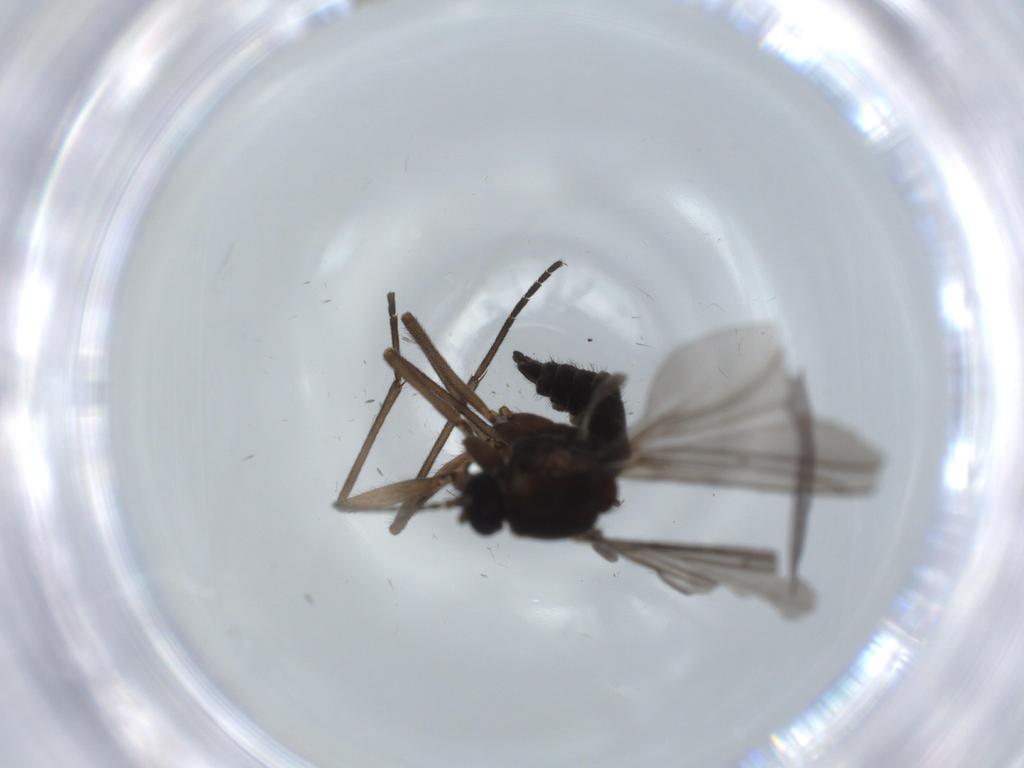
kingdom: Animalia
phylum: Arthropoda
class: Insecta
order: Diptera
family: Sciaridae
